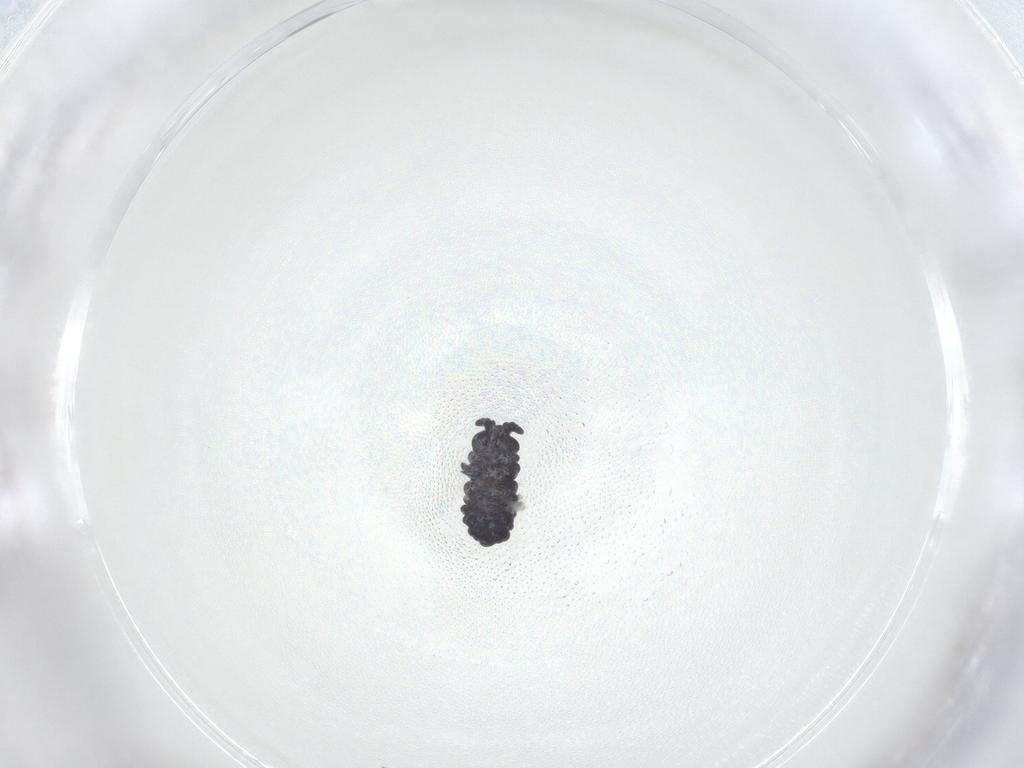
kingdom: Animalia
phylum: Arthropoda
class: Collembola
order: Poduromorpha
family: Neanuridae
